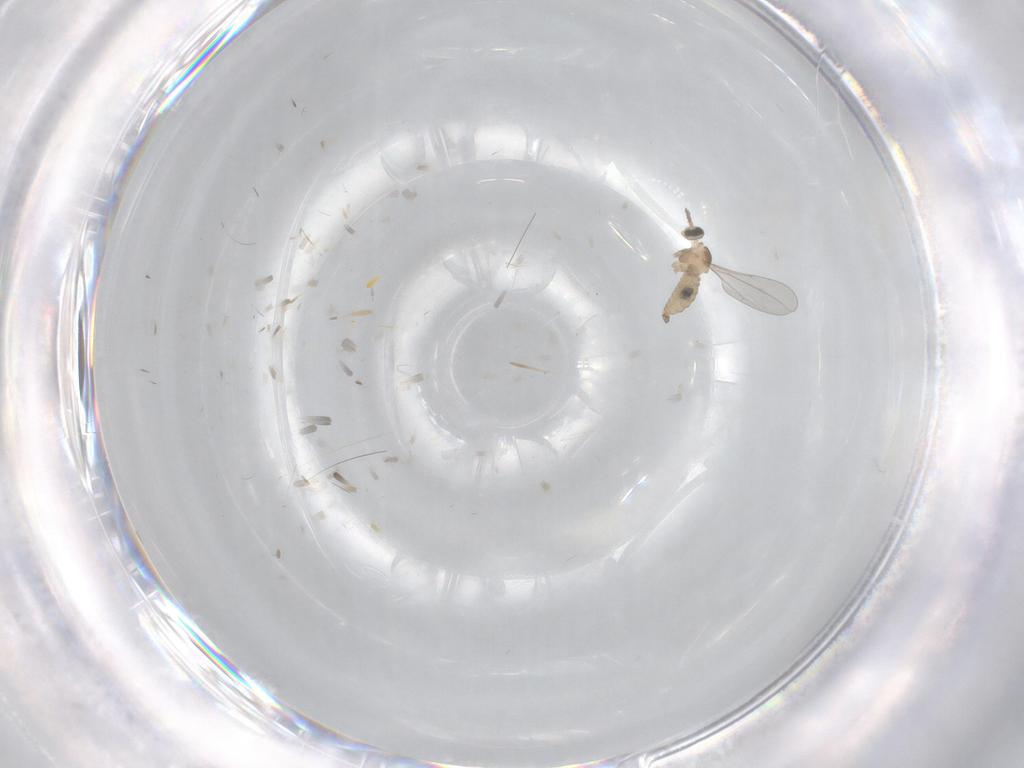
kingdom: Animalia
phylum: Arthropoda
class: Insecta
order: Diptera
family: Cecidomyiidae
